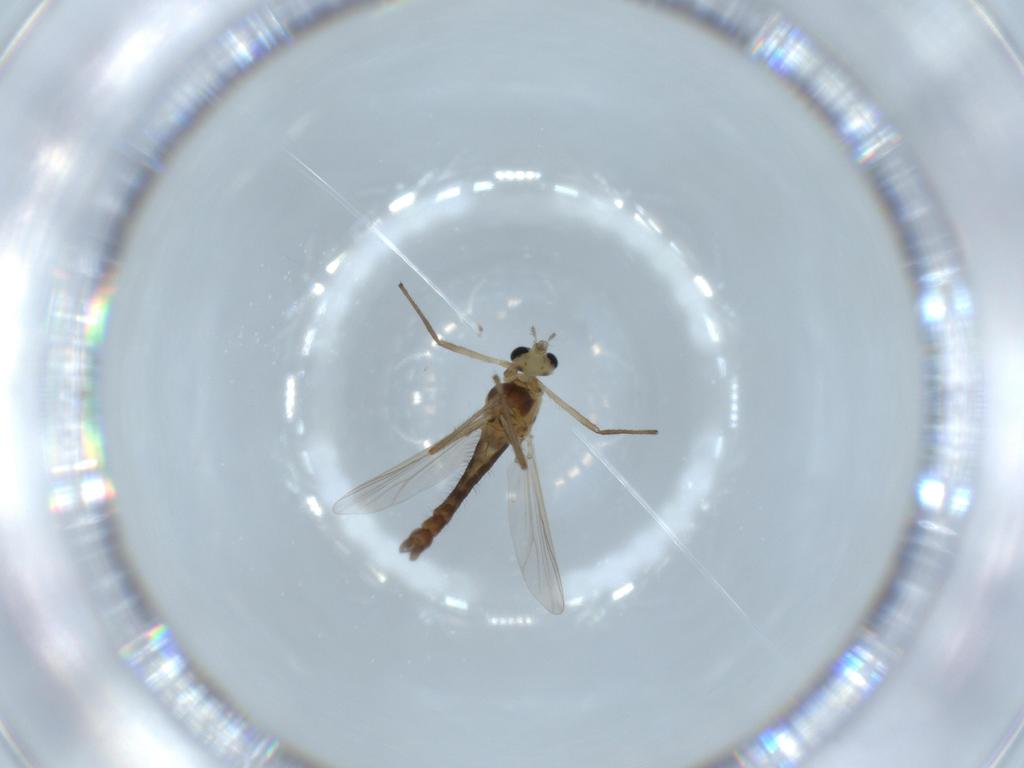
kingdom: Animalia
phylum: Arthropoda
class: Insecta
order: Diptera
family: Chironomidae
